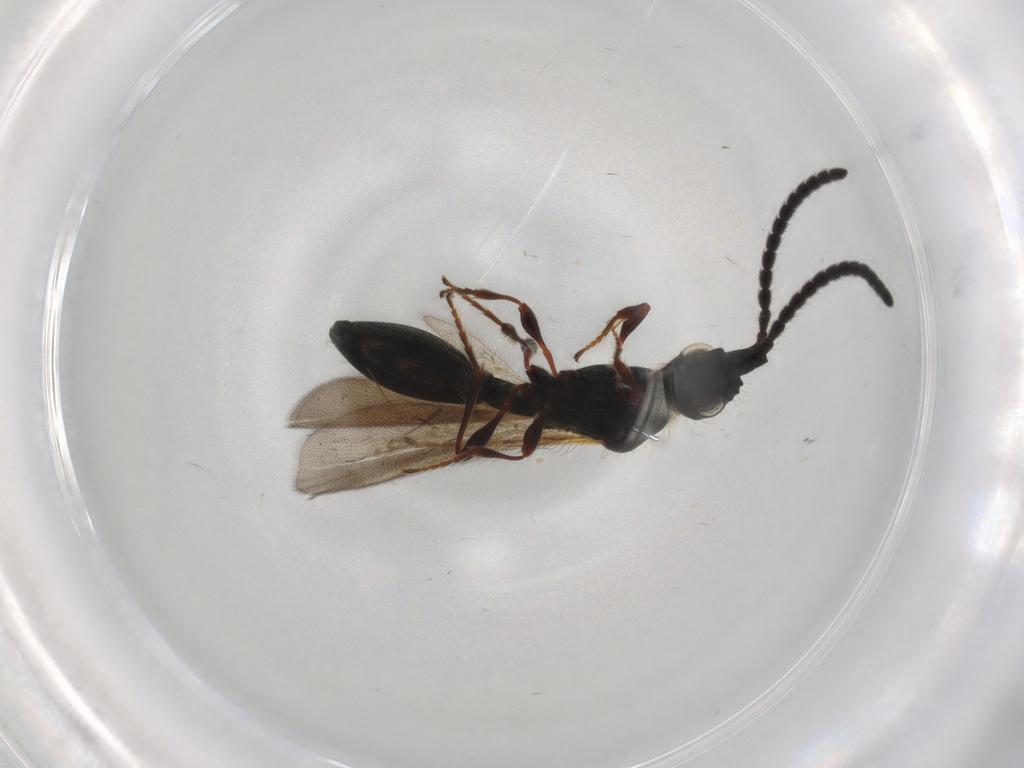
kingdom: Animalia
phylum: Arthropoda
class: Insecta
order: Hymenoptera
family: Diapriidae
